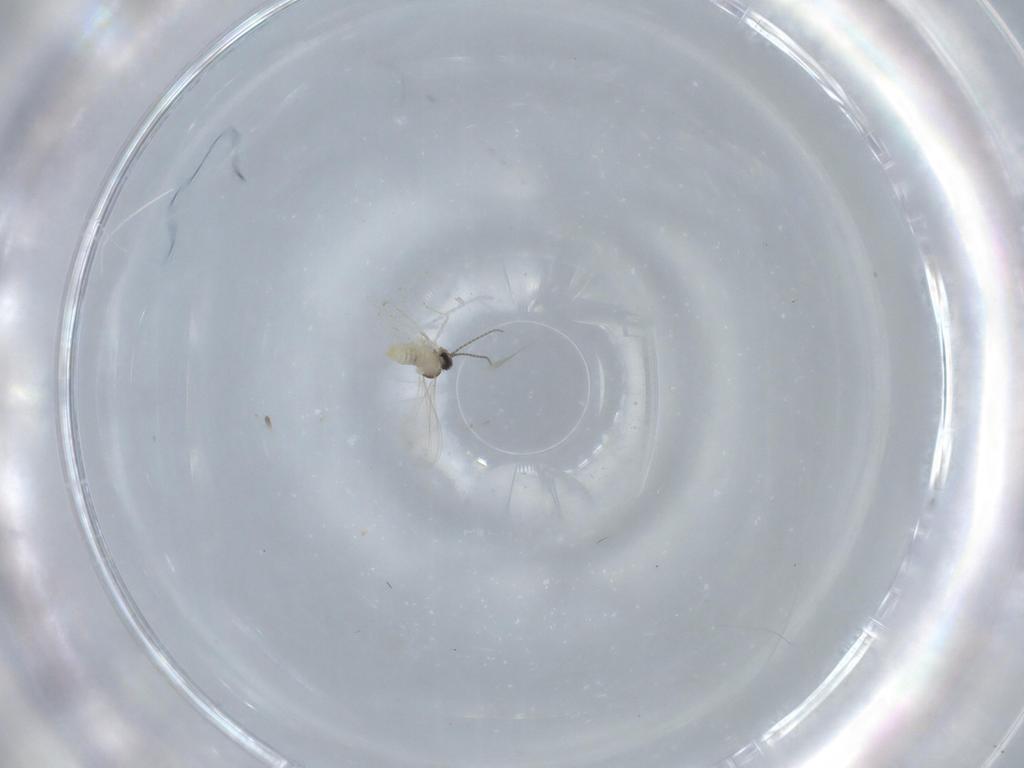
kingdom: Animalia
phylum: Arthropoda
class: Insecta
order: Diptera
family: Cecidomyiidae
